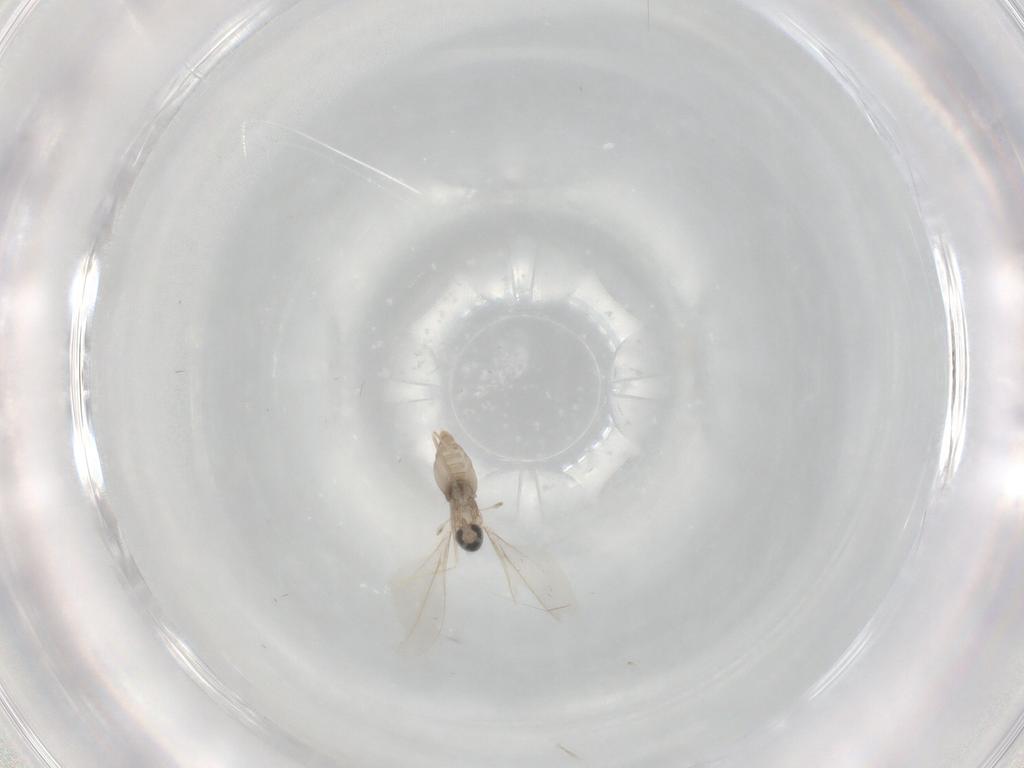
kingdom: Animalia
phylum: Arthropoda
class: Insecta
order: Diptera
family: Cecidomyiidae
